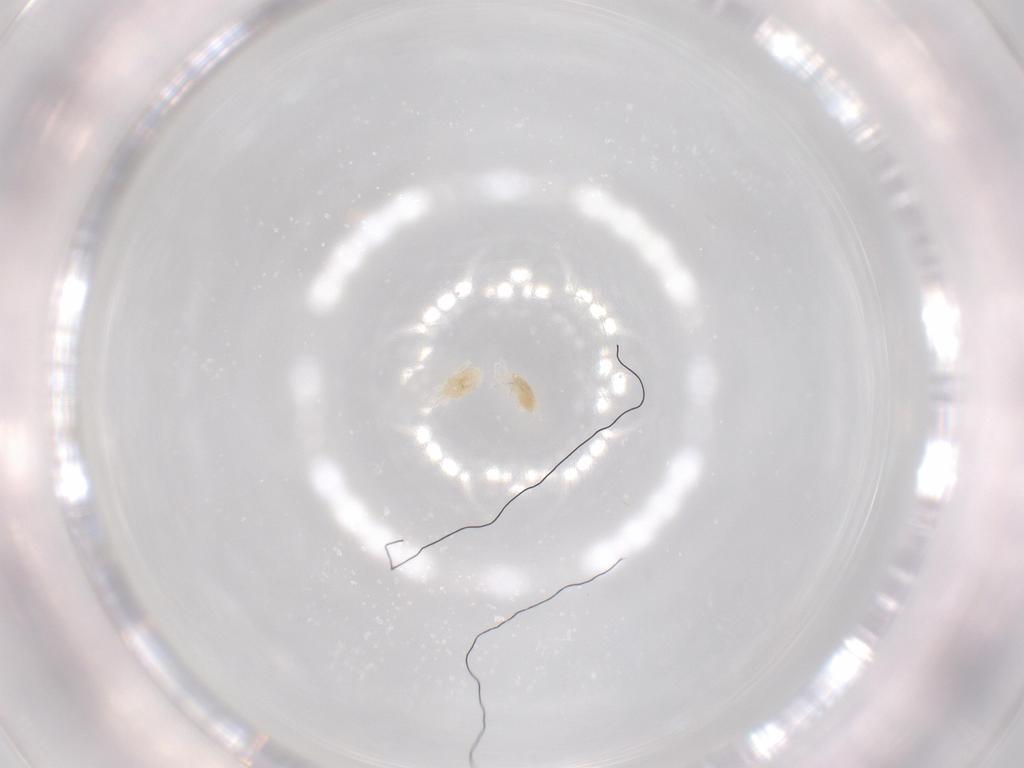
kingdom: Animalia
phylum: Arthropoda
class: Arachnida
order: Trombidiformes
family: Eupodidae
